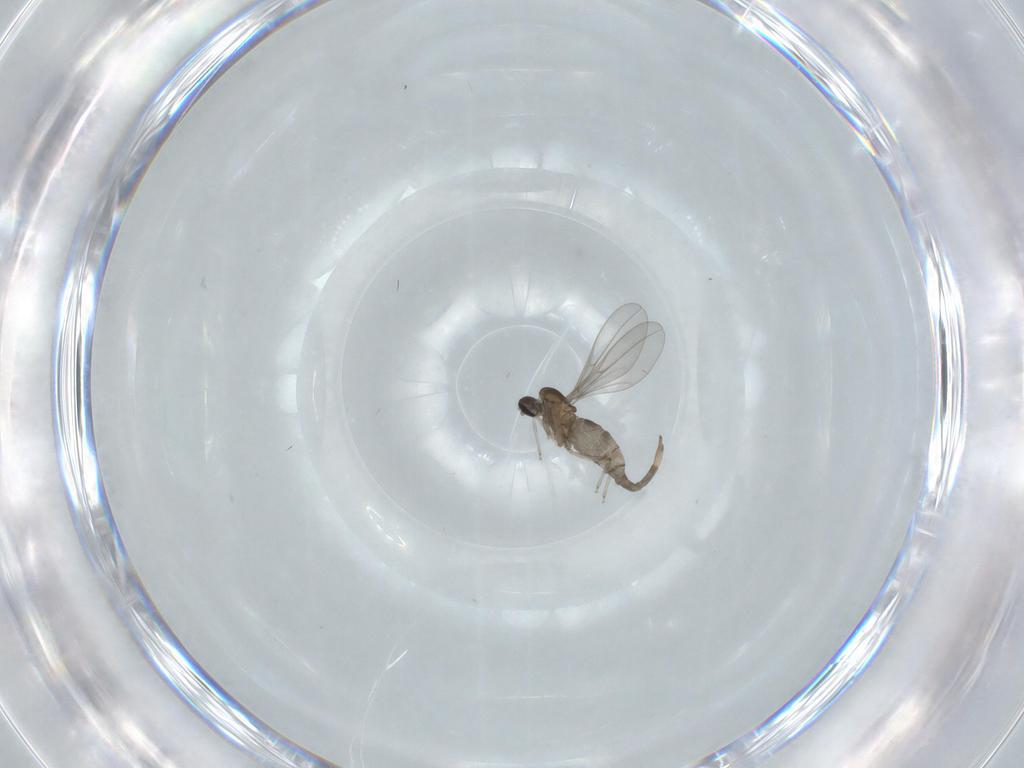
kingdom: Animalia
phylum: Arthropoda
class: Insecta
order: Diptera
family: Cecidomyiidae
